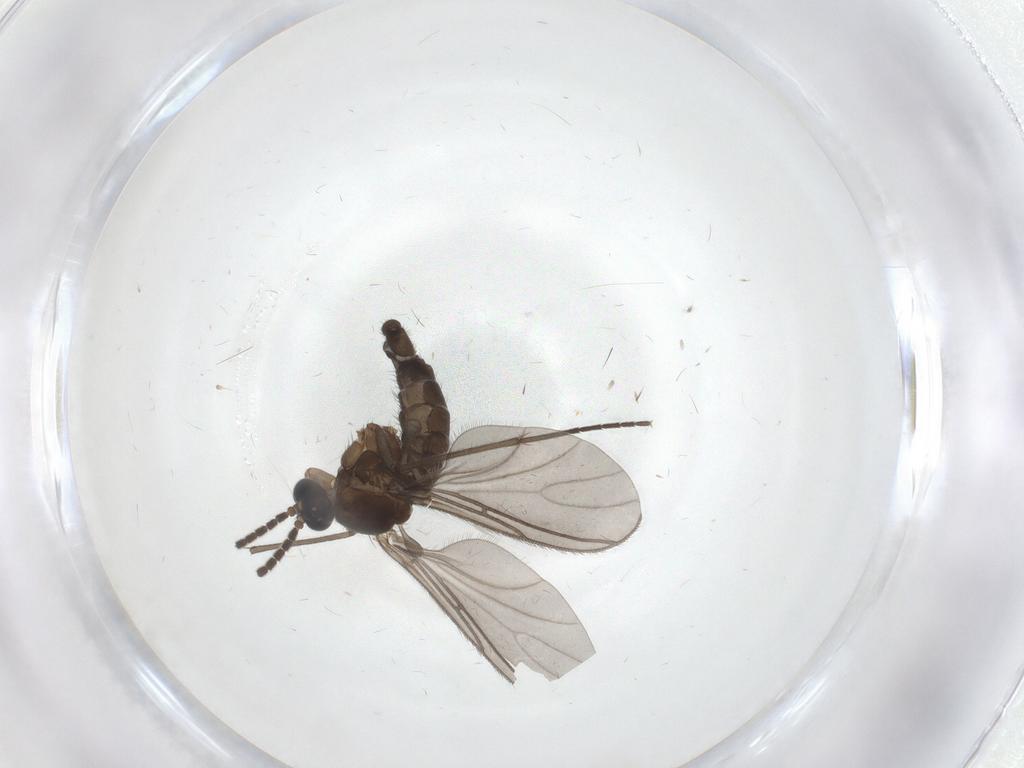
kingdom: Animalia
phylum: Arthropoda
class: Insecta
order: Diptera
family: Sciaridae
